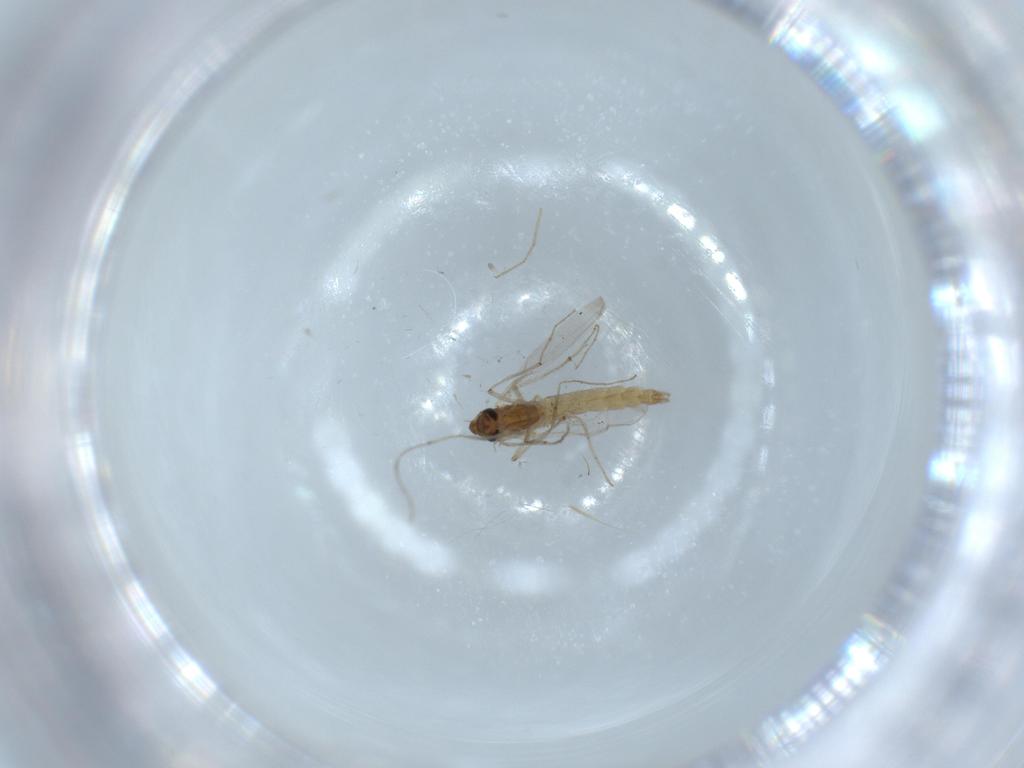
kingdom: Animalia
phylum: Arthropoda
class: Insecta
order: Diptera
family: Chironomidae
